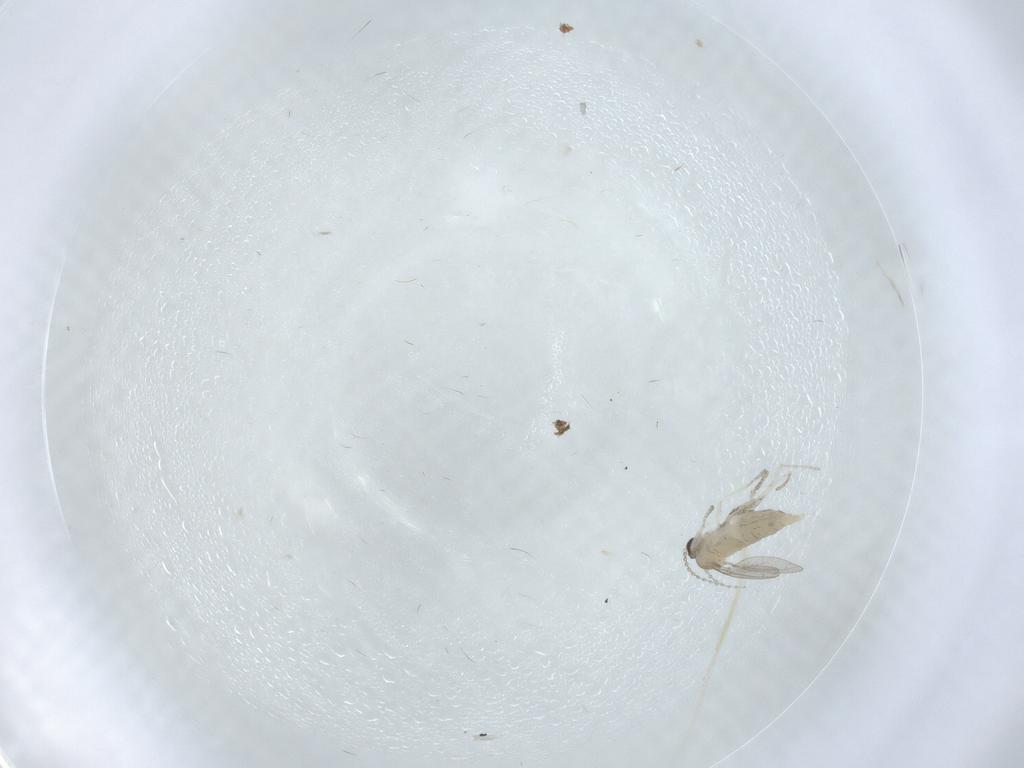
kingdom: Animalia
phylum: Arthropoda
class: Insecta
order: Diptera
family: Cecidomyiidae
